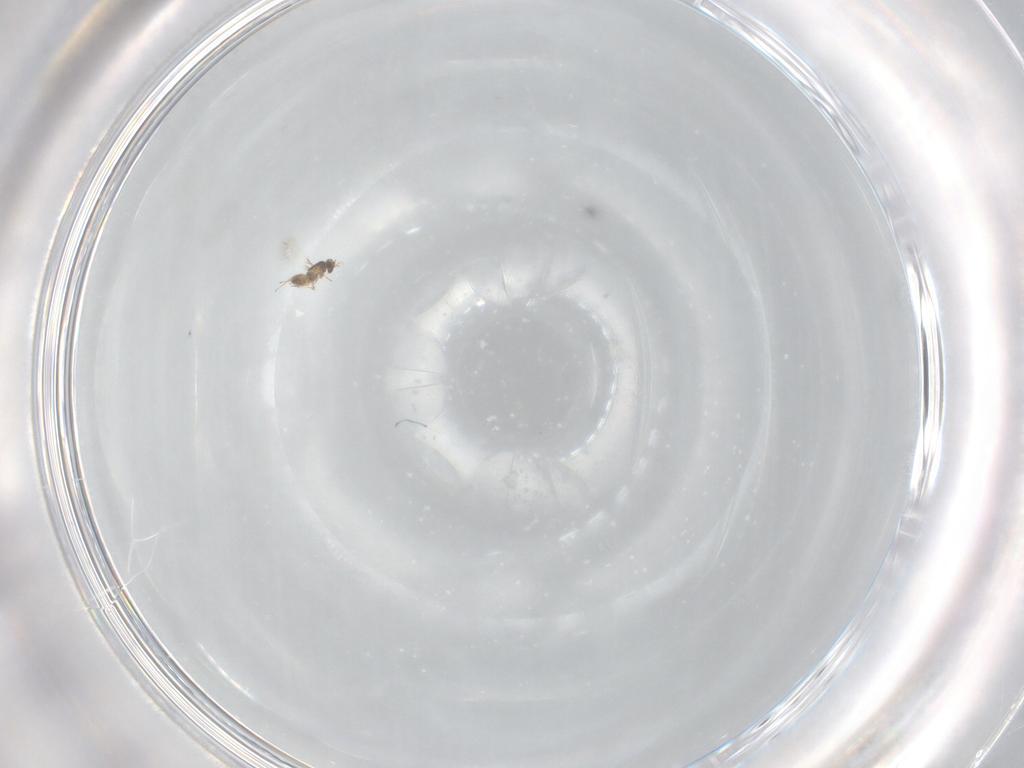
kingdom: Animalia
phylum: Arthropoda
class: Insecta
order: Hymenoptera
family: Mymaridae
